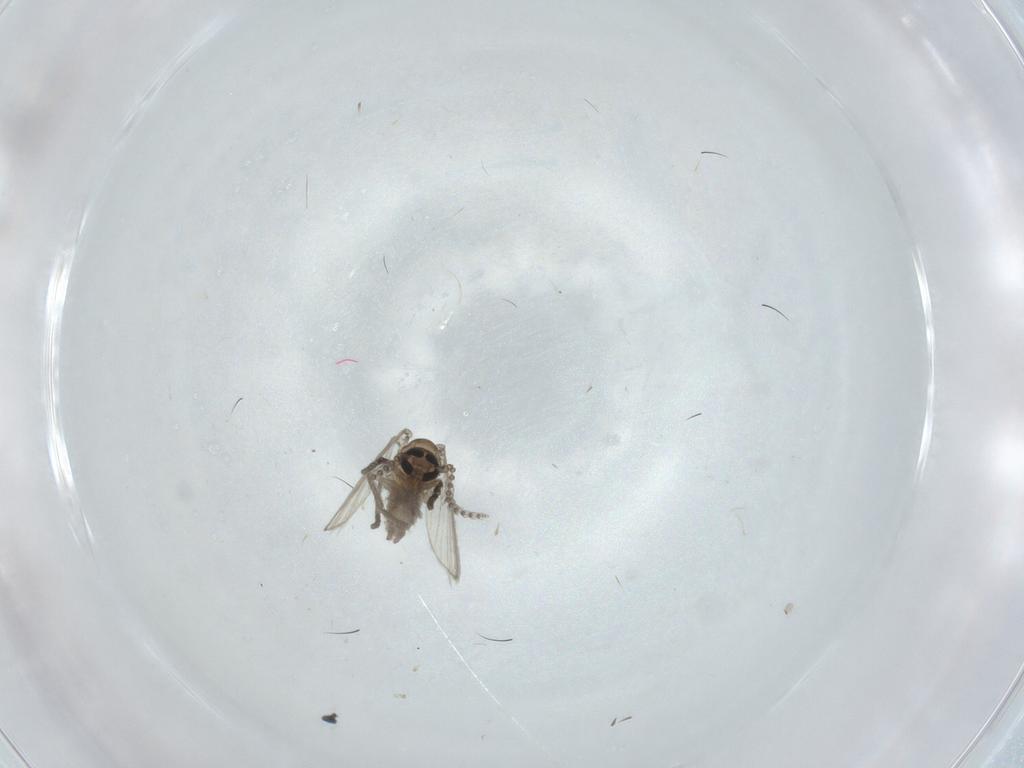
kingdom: Animalia
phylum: Arthropoda
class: Insecta
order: Diptera
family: Psychodidae
